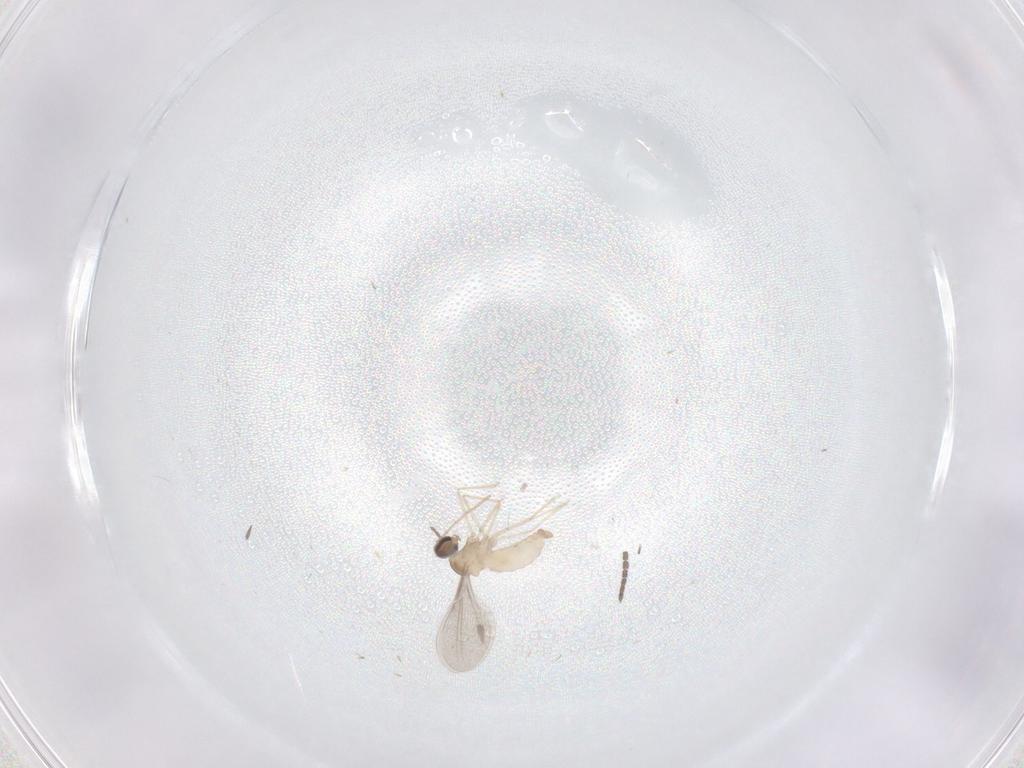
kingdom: Animalia
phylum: Arthropoda
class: Insecta
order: Diptera
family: Cecidomyiidae
